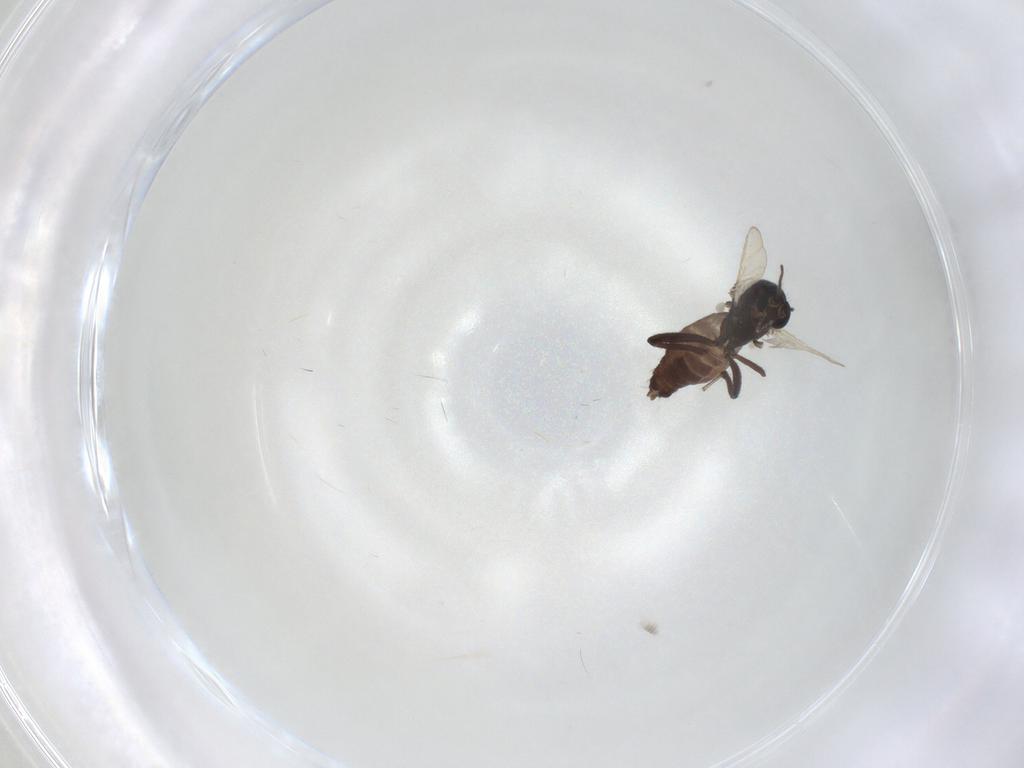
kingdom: Animalia
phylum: Arthropoda
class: Insecta
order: Diptera
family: Ceratopogonidae
